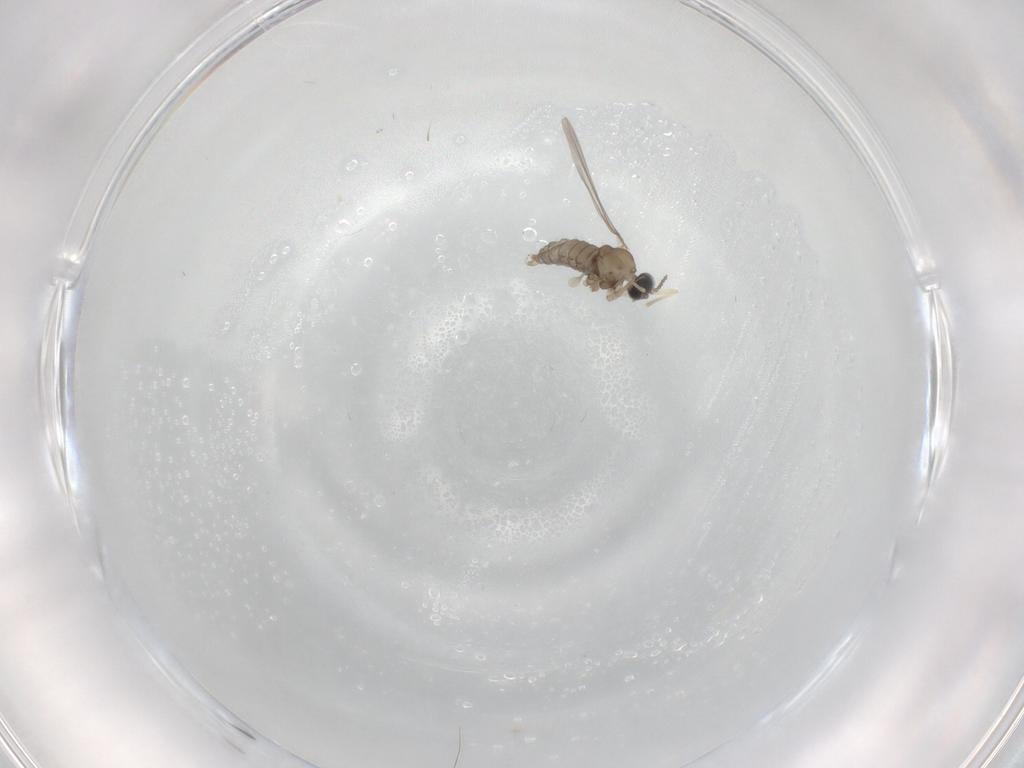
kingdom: Animalia
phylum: Arthropoda
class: Insecta
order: Diptera
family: Cecidomyiidae
